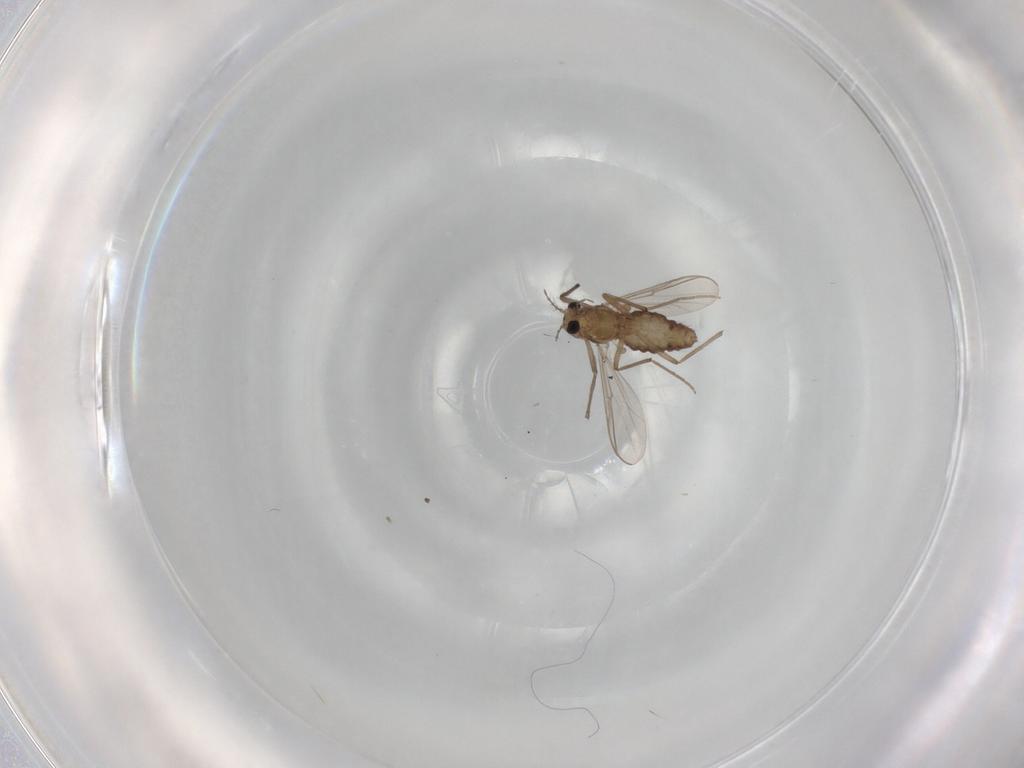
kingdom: Animalia
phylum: Arthropoda
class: Insecta
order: Diptera
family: Chironomidae
